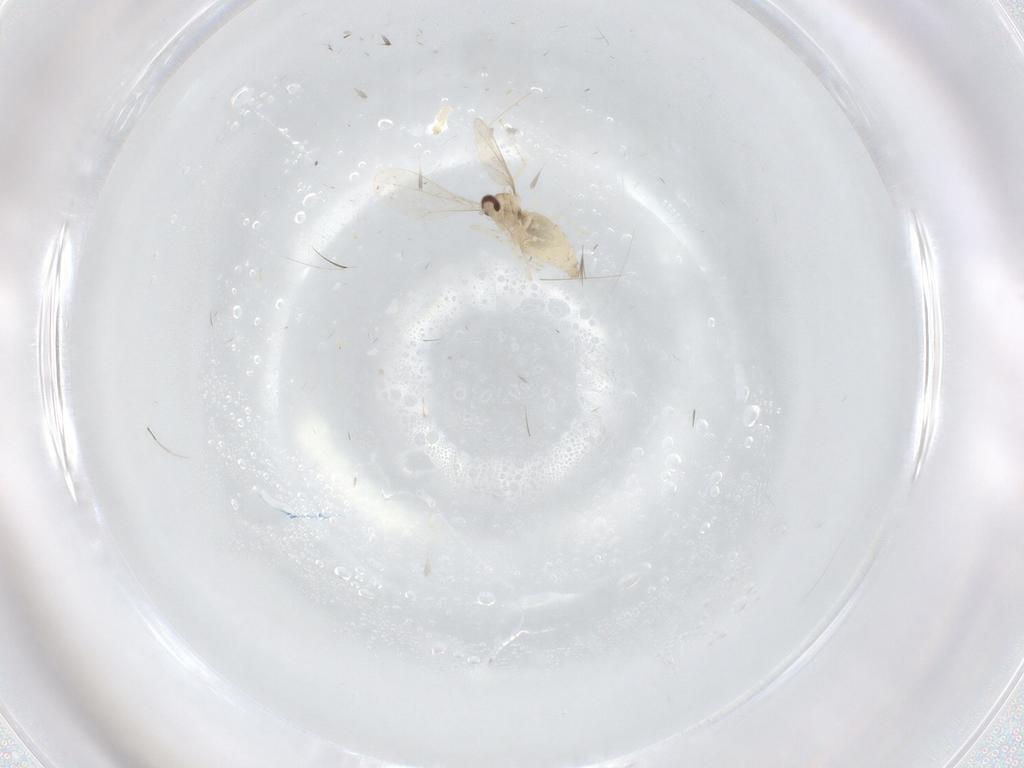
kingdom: Animalia
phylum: Arthropoda
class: Insecta
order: Diptera
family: Cecidomyiidae
